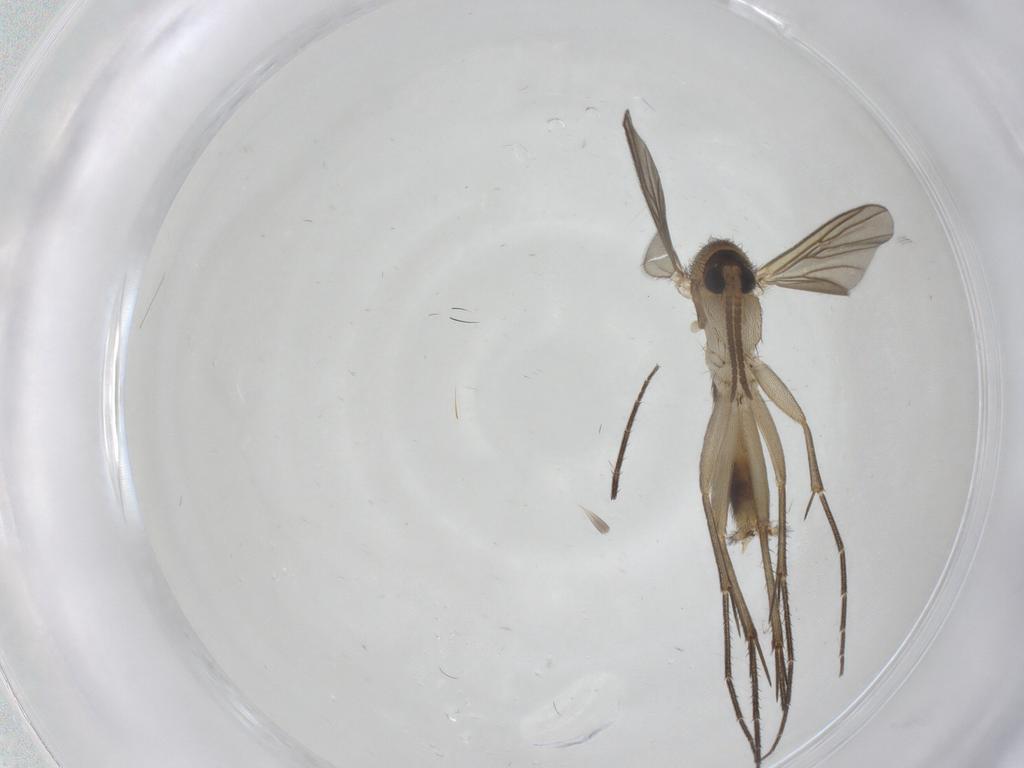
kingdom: Animalia
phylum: Arthropoda
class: Insecta
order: Diptera
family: Mycetophilidae
